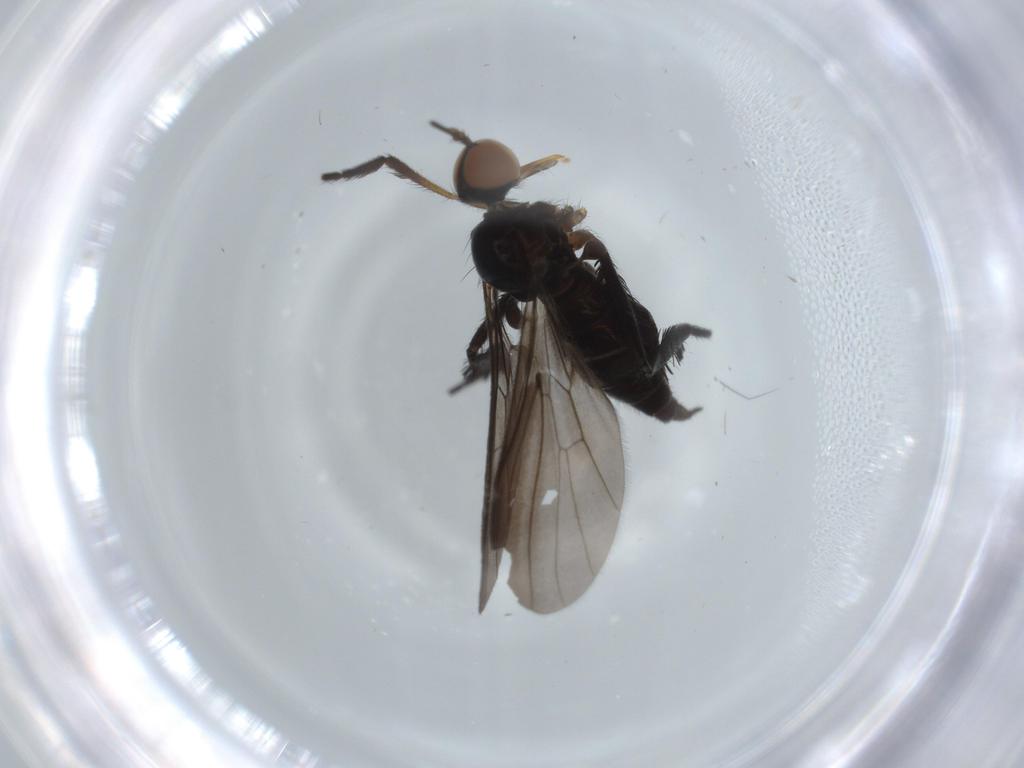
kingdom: Animalia
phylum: Arthropoda
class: Insecta
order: Diptera
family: Empididae
